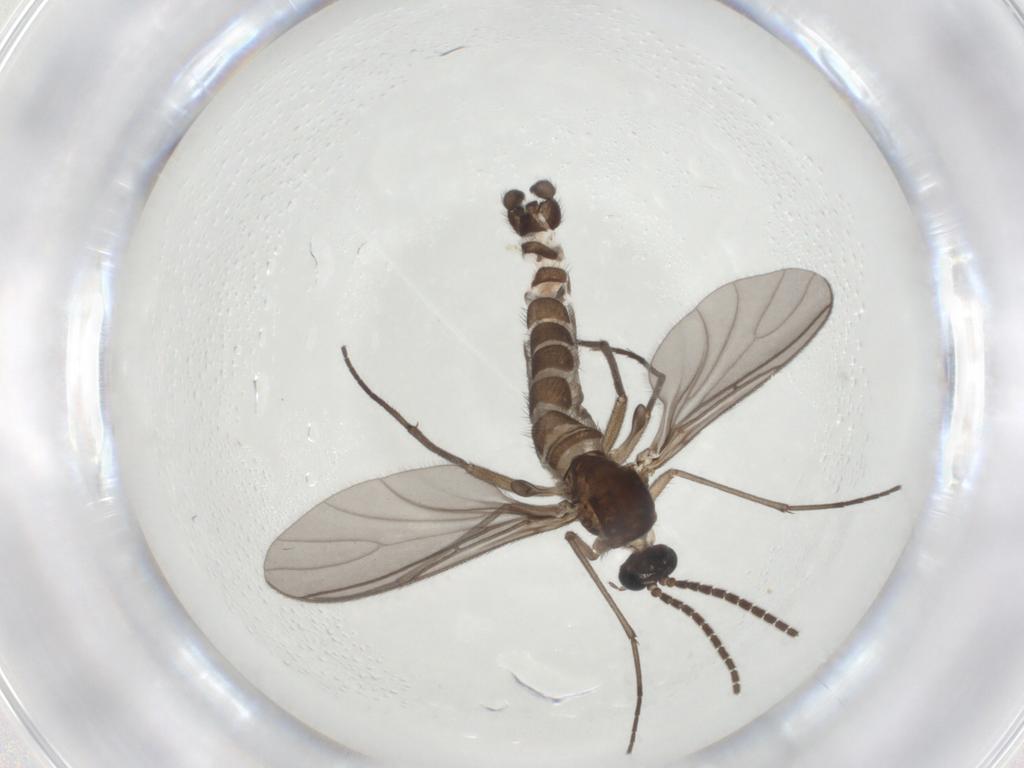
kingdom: Animalia
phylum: Arthropoda
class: Insecta
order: Diptera
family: Sciaridae
